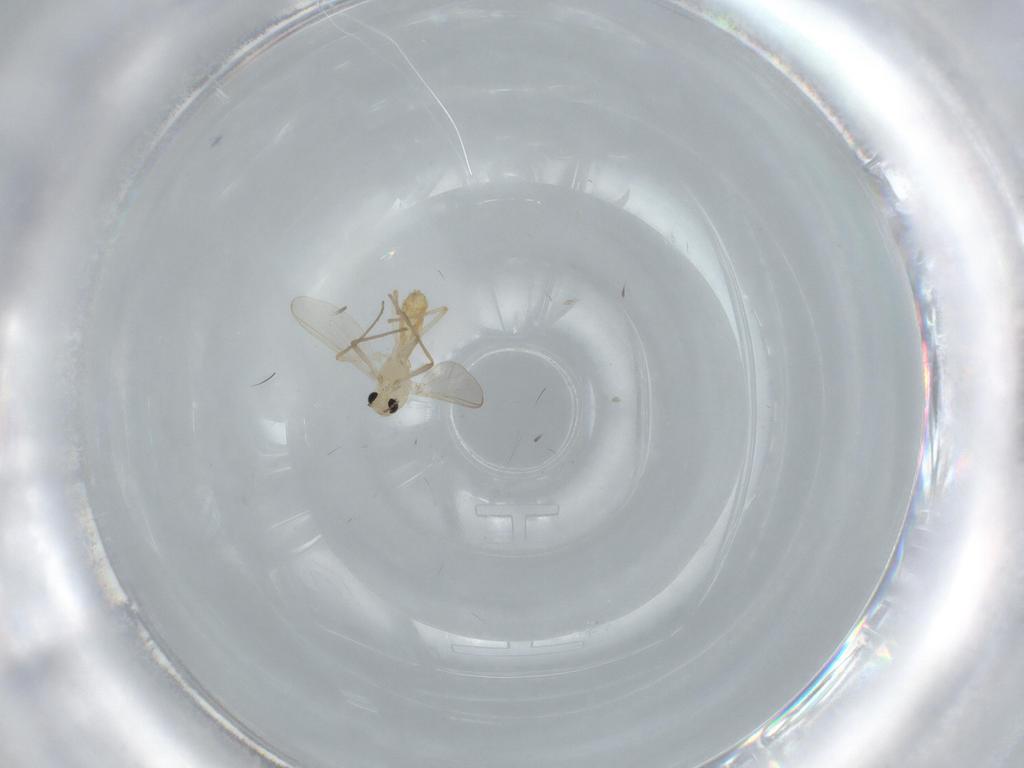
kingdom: Animalia
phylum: Arthropoda
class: Insecta
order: Diptera
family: Chironomidae
